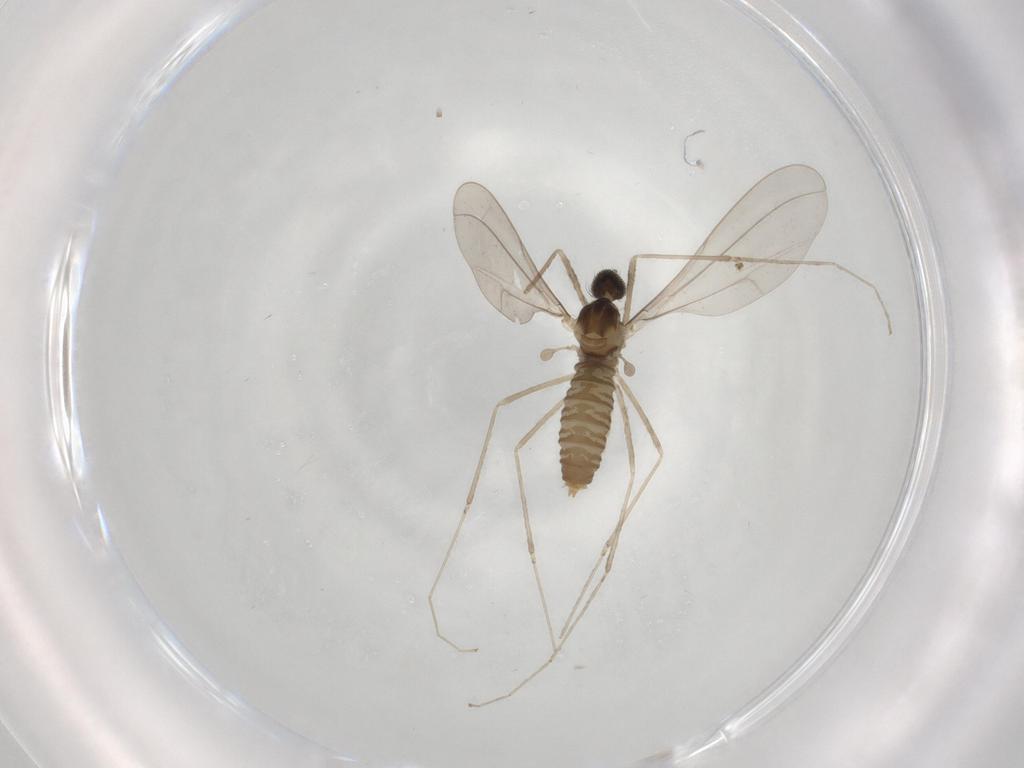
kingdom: Animalia
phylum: Arthropoda
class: Insecta
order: Diptera
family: Cecidomyiidae
